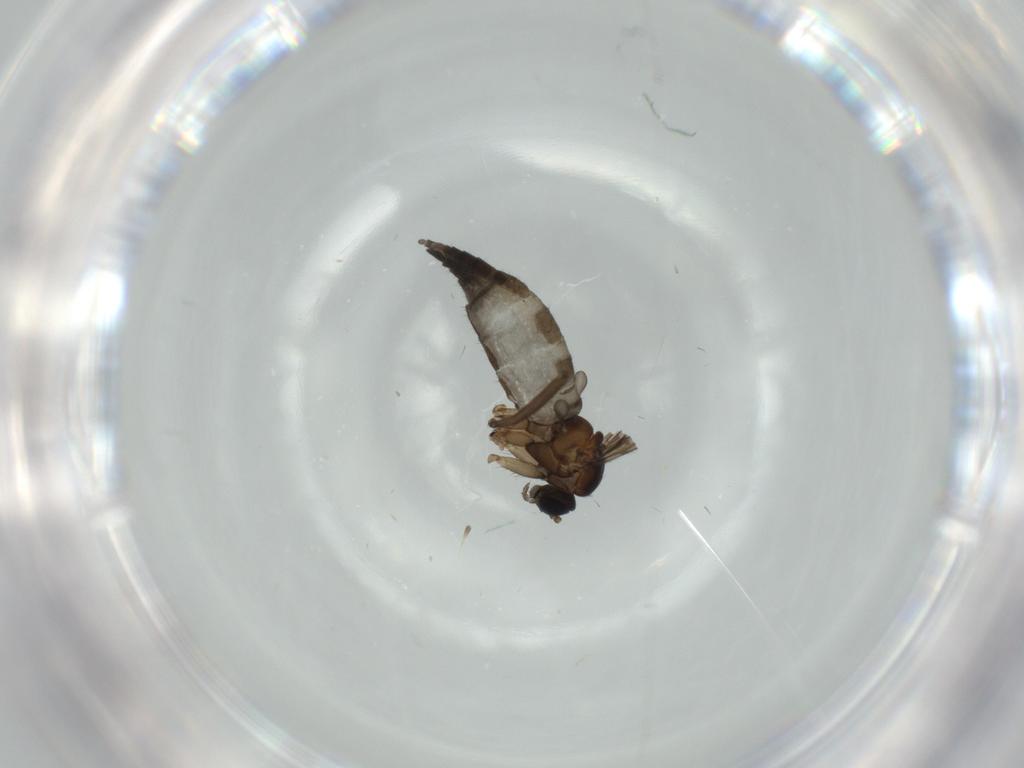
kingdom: Animalia
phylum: Arthropoda
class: Insecta
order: Diptera
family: Sciaridae
